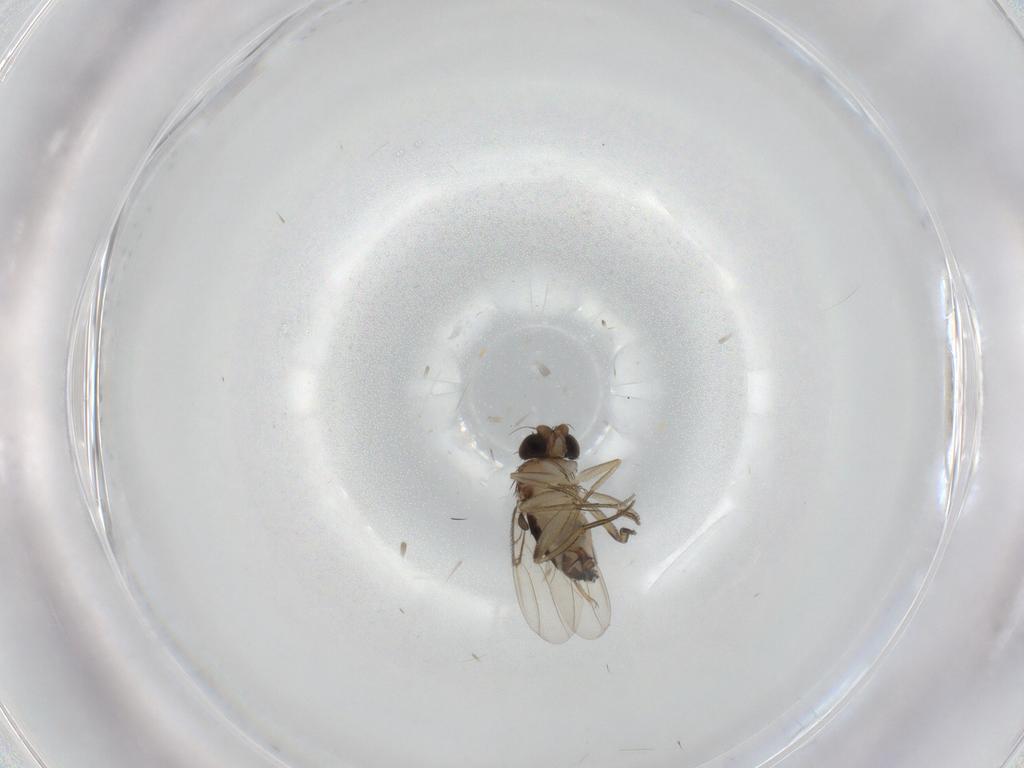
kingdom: Animalia
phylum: Arthropoda
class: Insecta
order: Diptera
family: Phoridae
